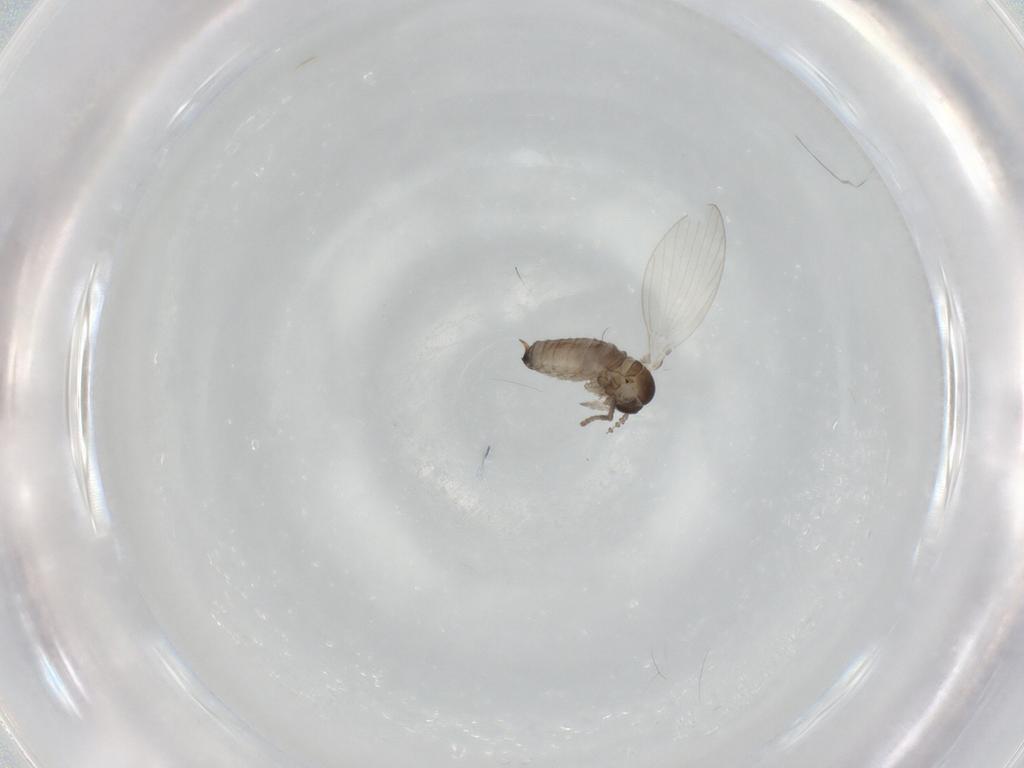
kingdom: Animalia
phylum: Arthropoda
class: Insecta
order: Diptera
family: Psychodidae
